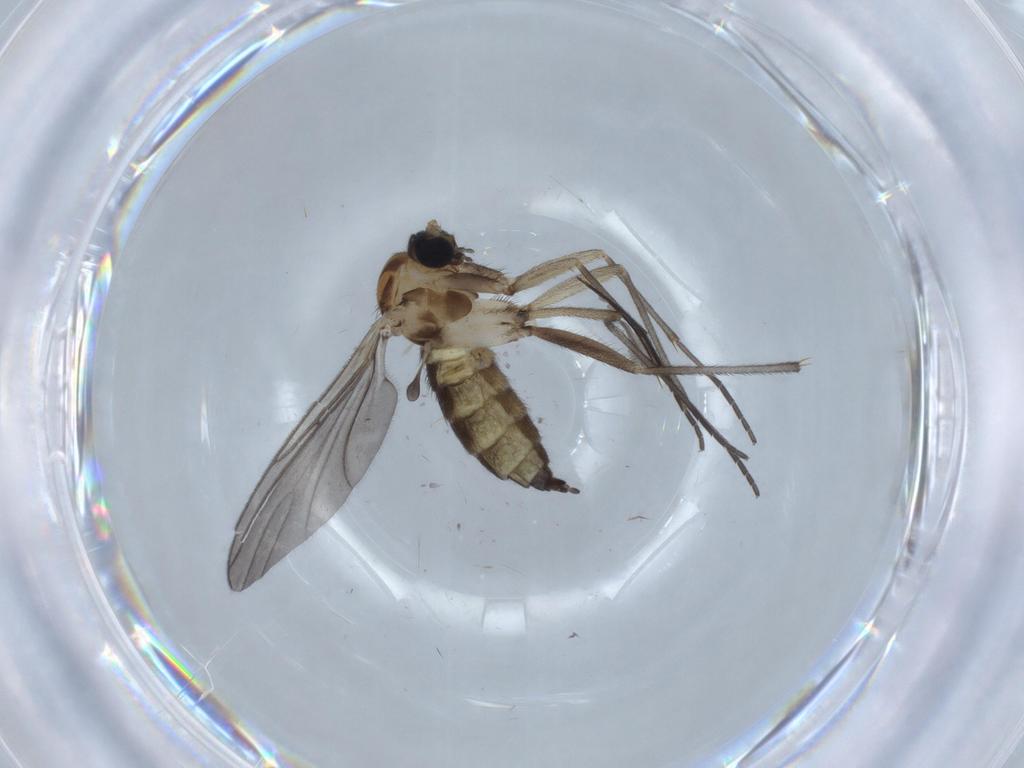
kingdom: Animalia
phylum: Arthropoda
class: Insecta
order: Diptera
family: Sciaridae
